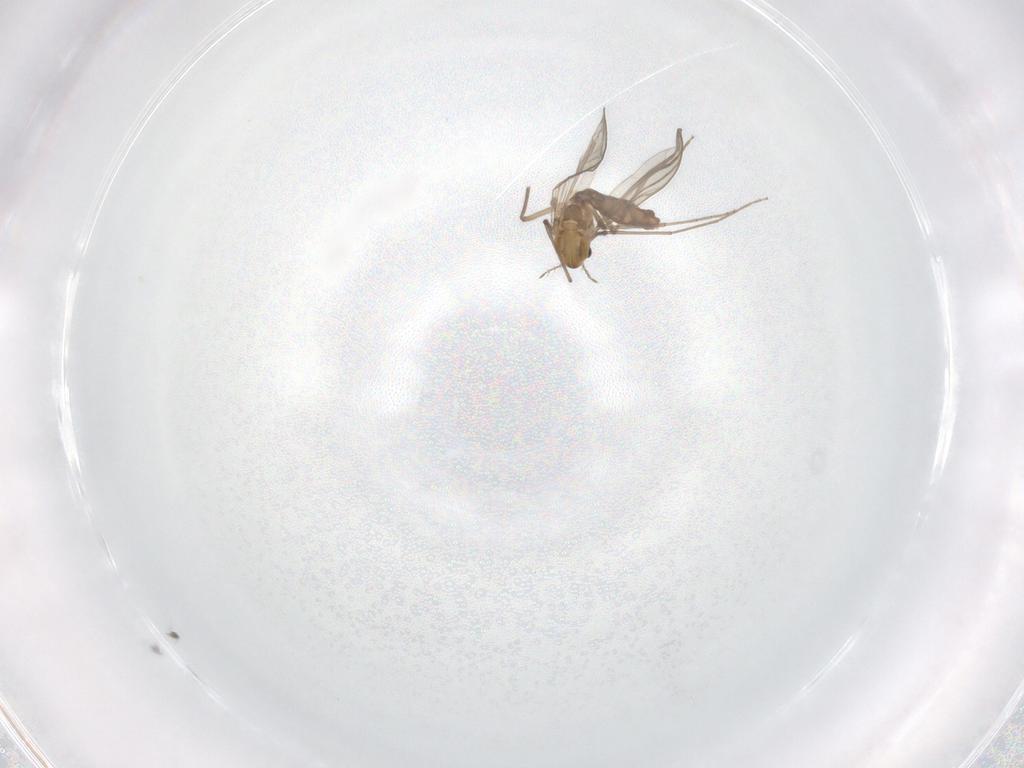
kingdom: Animalia
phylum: Arthropoda
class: Insecta
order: Diptera
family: Chironomidae
